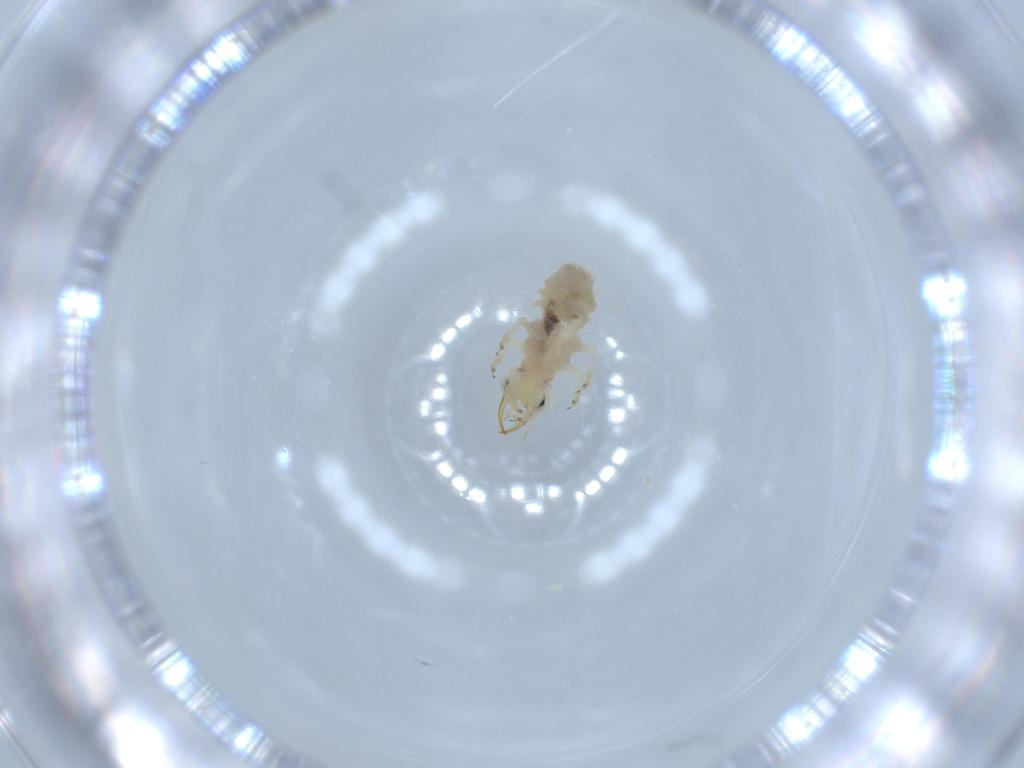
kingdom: Animalia
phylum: Arthropoda
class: Insecta
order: Neuroptera
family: Chrysopidae
